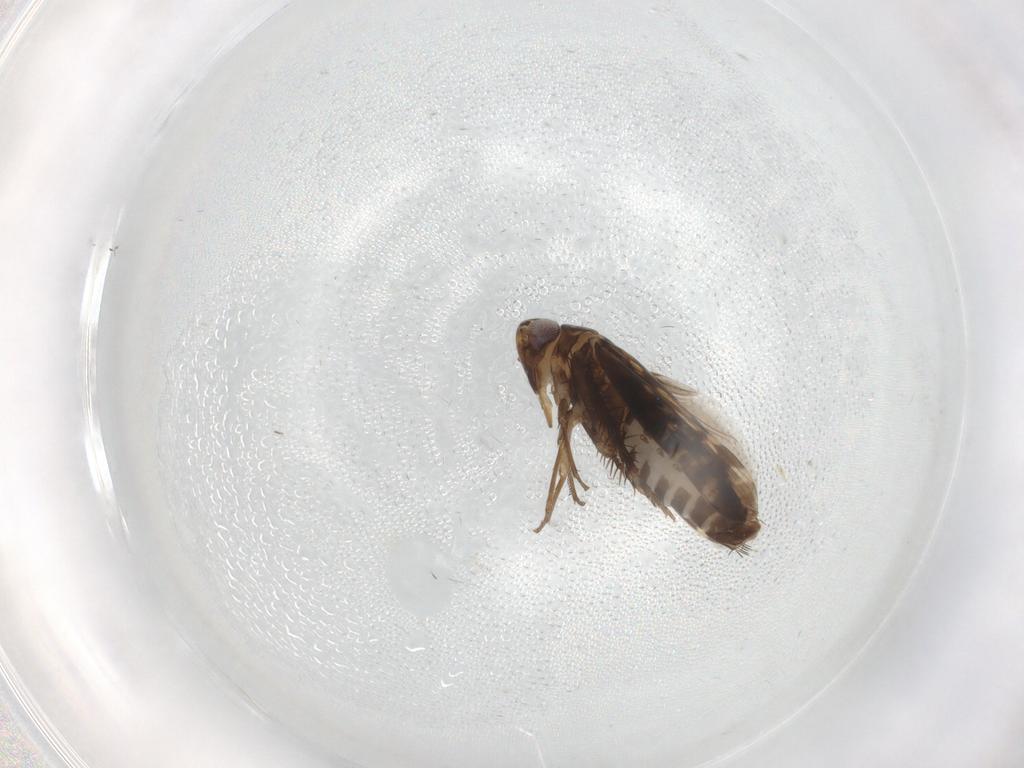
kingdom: Animalia
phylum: Arthropoda
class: Insecta
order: Hemiptera
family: Cicadellidae
